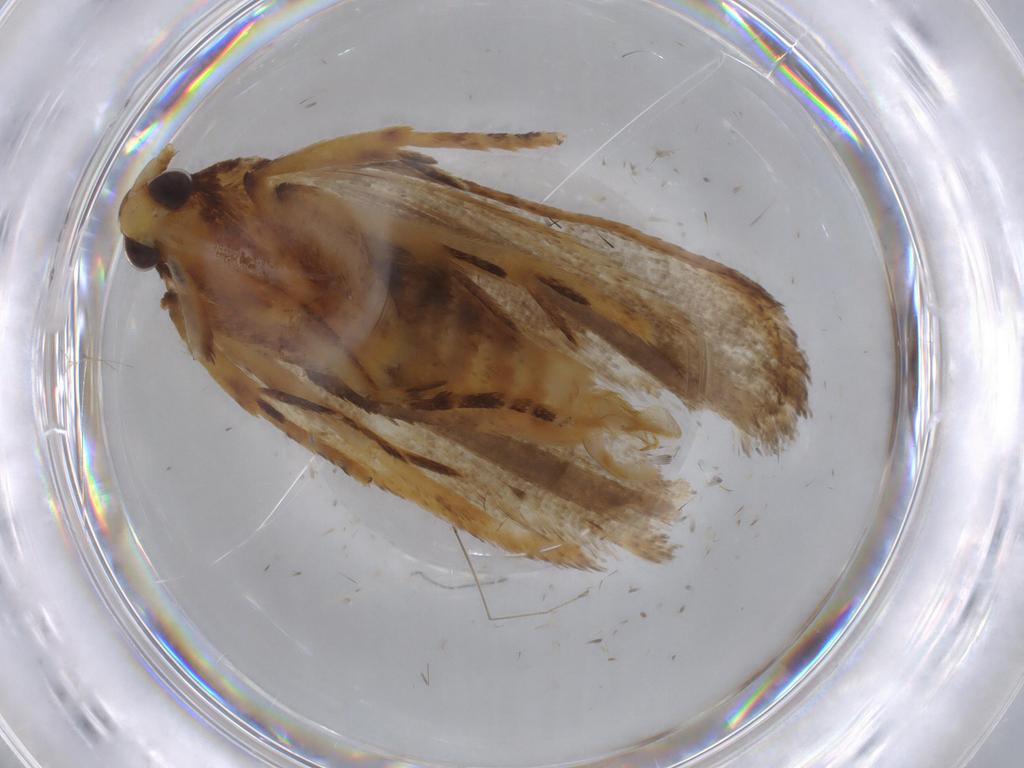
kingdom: Animalia
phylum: Arthropoda
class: Insecta
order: Lepidoptera
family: Lecithoceridae
